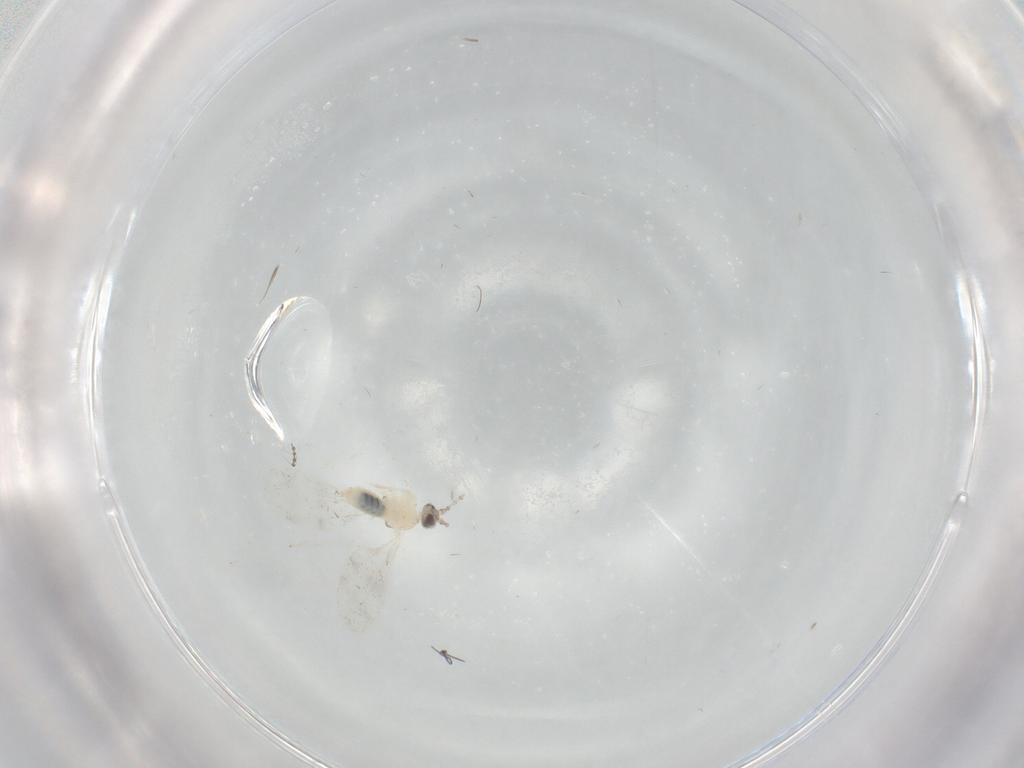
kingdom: Animalia
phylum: Arthropoda
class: Insecta
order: Diptera
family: Cecidomyiidae
